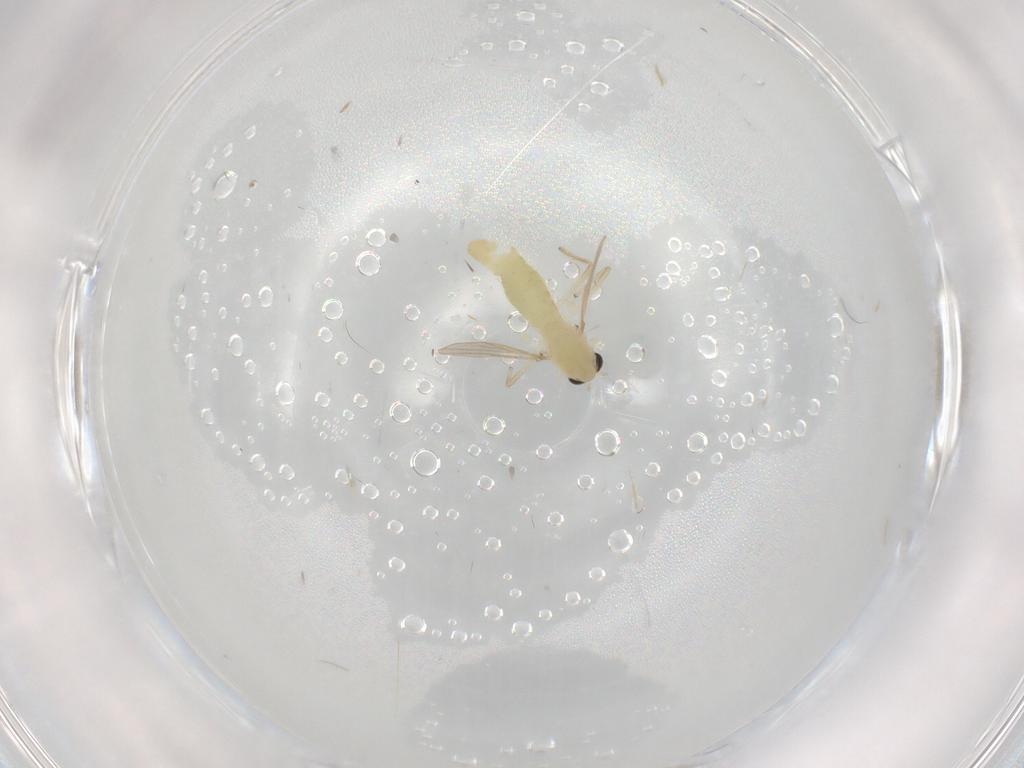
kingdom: Animalia
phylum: Arthropoda
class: Insecta
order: Diptera
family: Chironomidae
